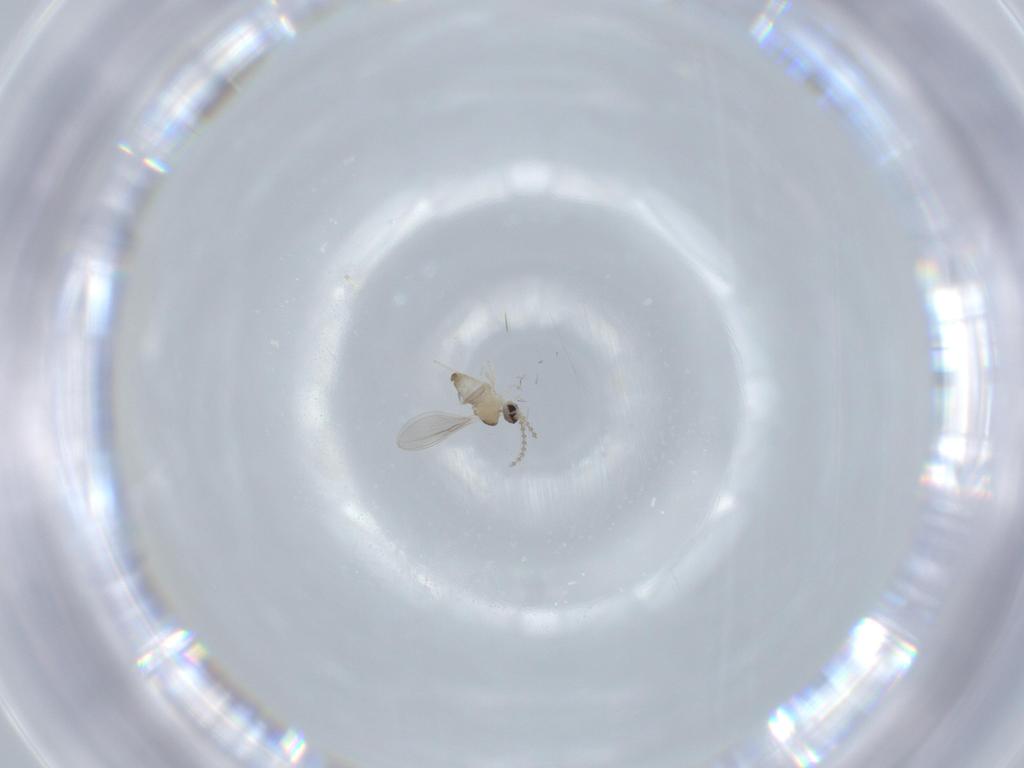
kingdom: Animalia
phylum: Arthropoda
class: Insecta
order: Diptera
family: Cecidomyiidae
